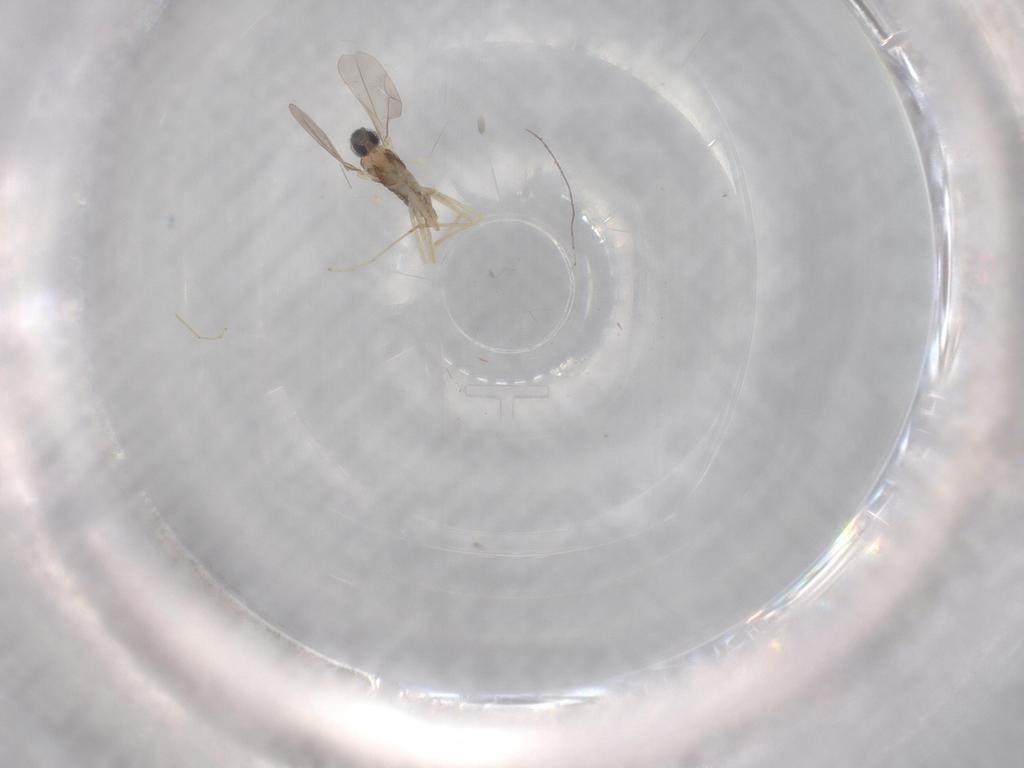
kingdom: Animalia
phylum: Arthropoda
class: Insecta
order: Diptera
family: Cecidomyiidae
